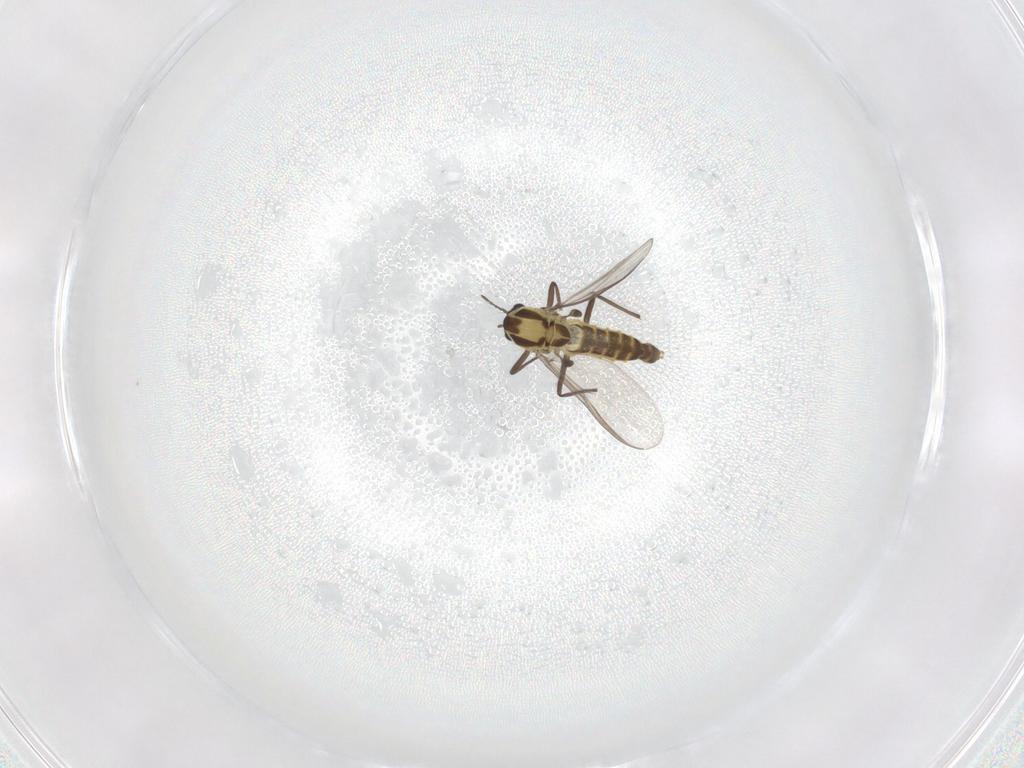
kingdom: Animalia
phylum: Arthropoda
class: Insecta
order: Diptera
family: Chironomidae
